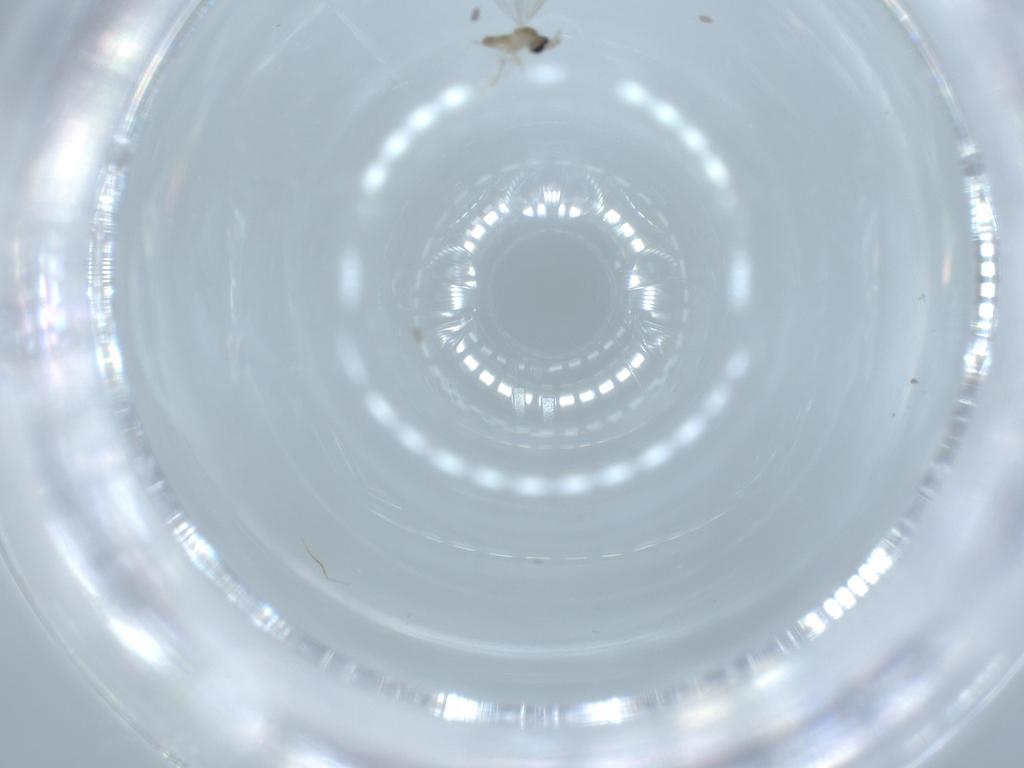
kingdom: Animalia
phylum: Arthropoda
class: Insecta
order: Diptera
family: Cecidomyiidae
